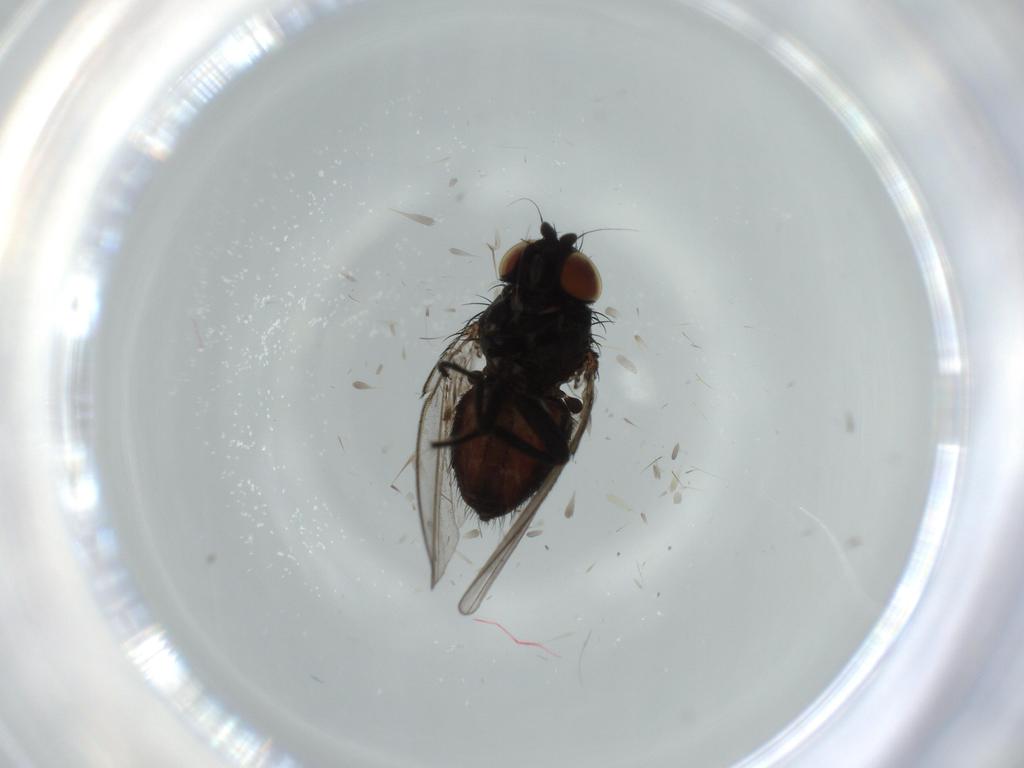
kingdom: Animalia
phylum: Arthropoda
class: Insecta
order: Diptera
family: Milichiidae
